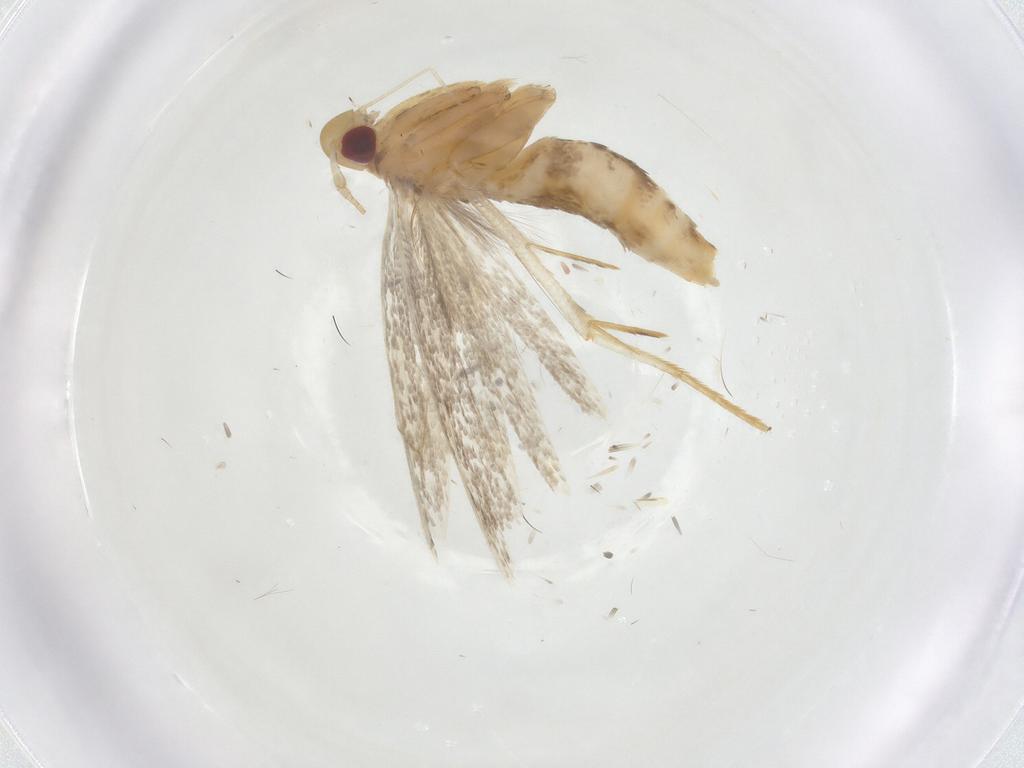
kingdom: Animalia
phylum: Arthropoda
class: Insecta
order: Lepidoptera
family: Cosmopterigidae
